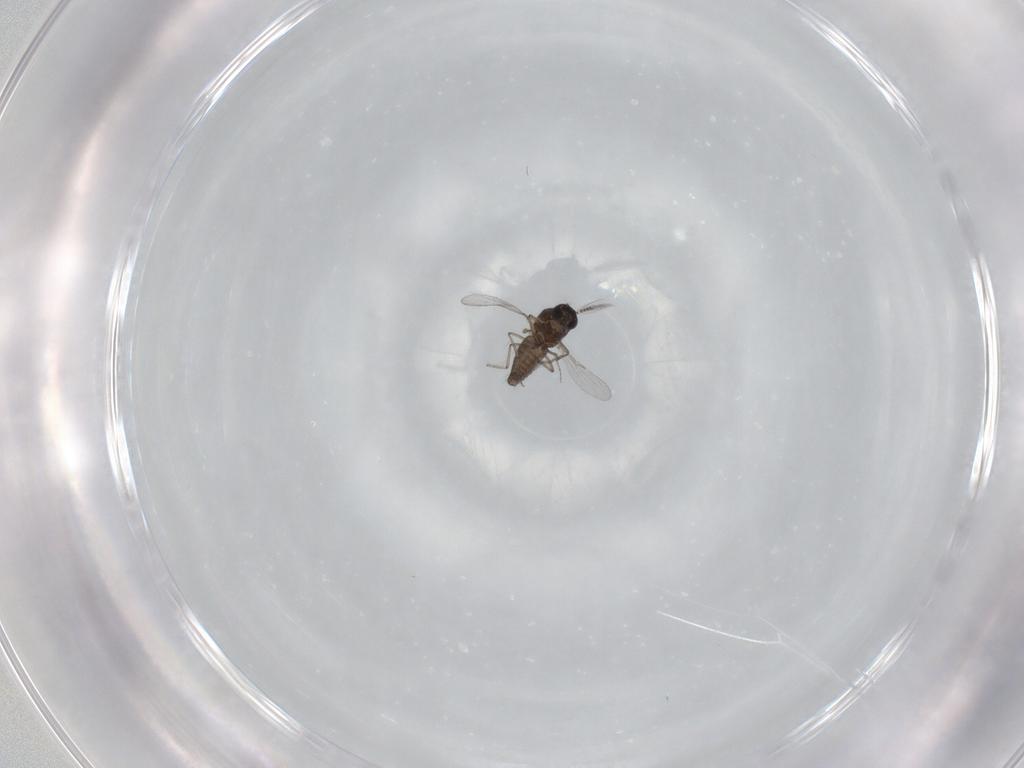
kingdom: Animalia
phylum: Arthropoda
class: Insecta
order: Diptera
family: Ceratopogonidae
